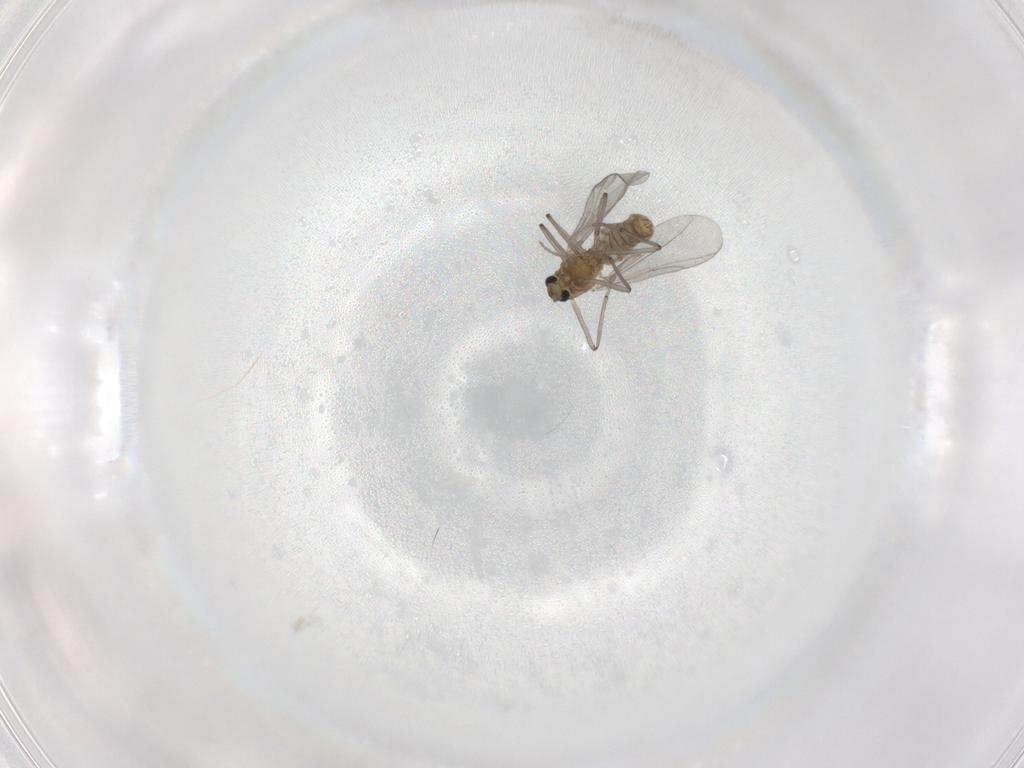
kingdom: Animalia
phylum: Arthropoda
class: Insecta
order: Diptera
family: Chironomidae
